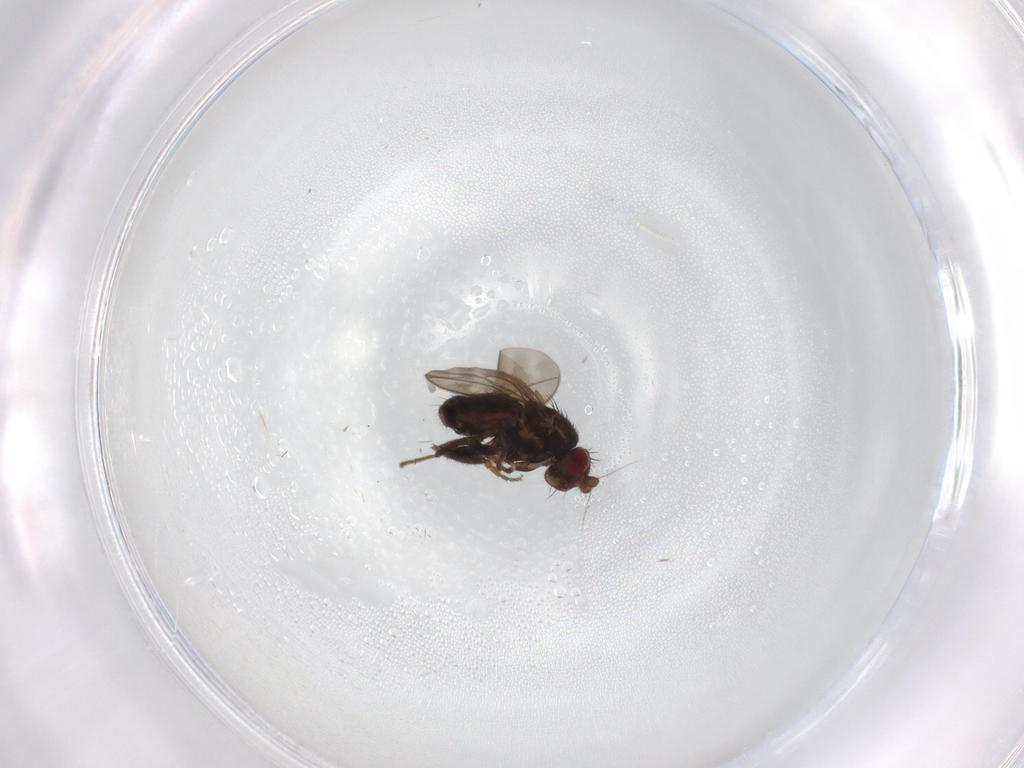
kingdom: Animalia
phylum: Arthropoda
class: Insecta
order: Diptera
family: Sphaeroceridae
